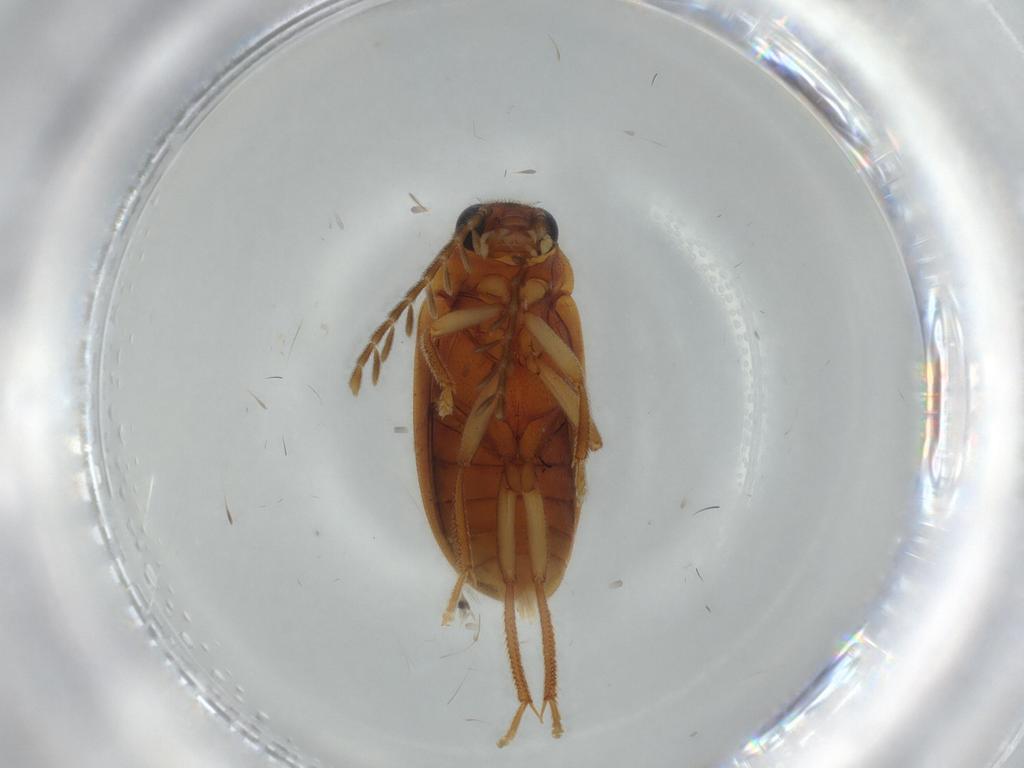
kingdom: Animalia
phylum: Arthropoda
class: Insecta
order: Coleoptera
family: Ptilodactylidae
